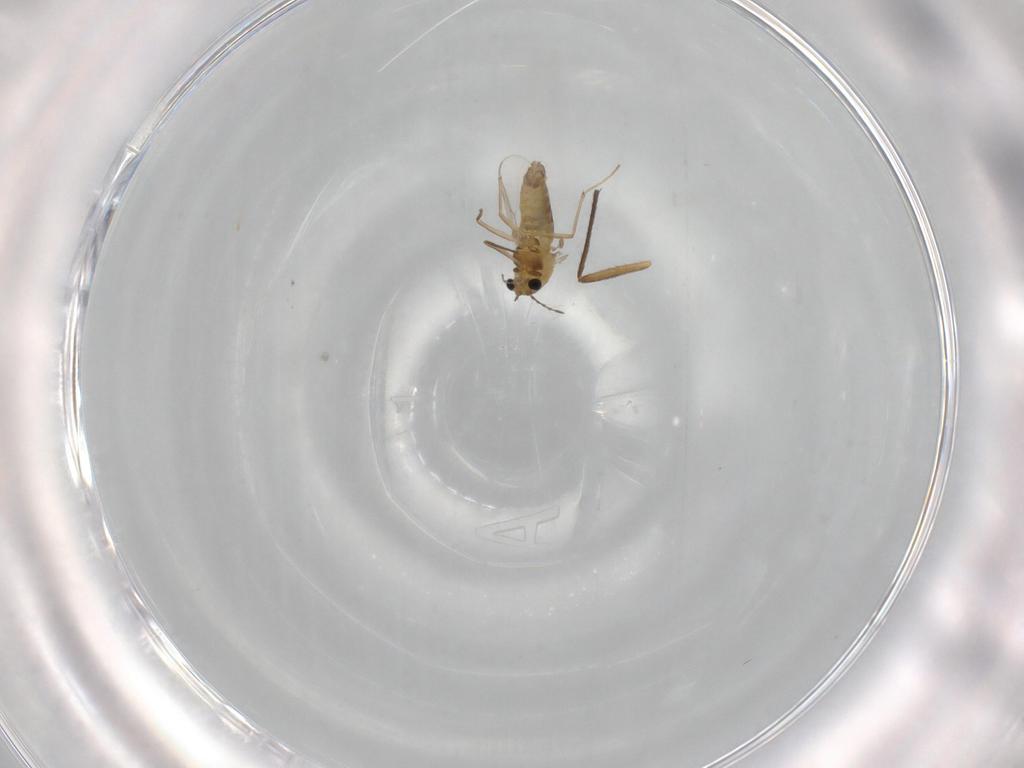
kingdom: Animalia
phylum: Arthropoda
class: Insecta
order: Diptera
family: Chironomidae
